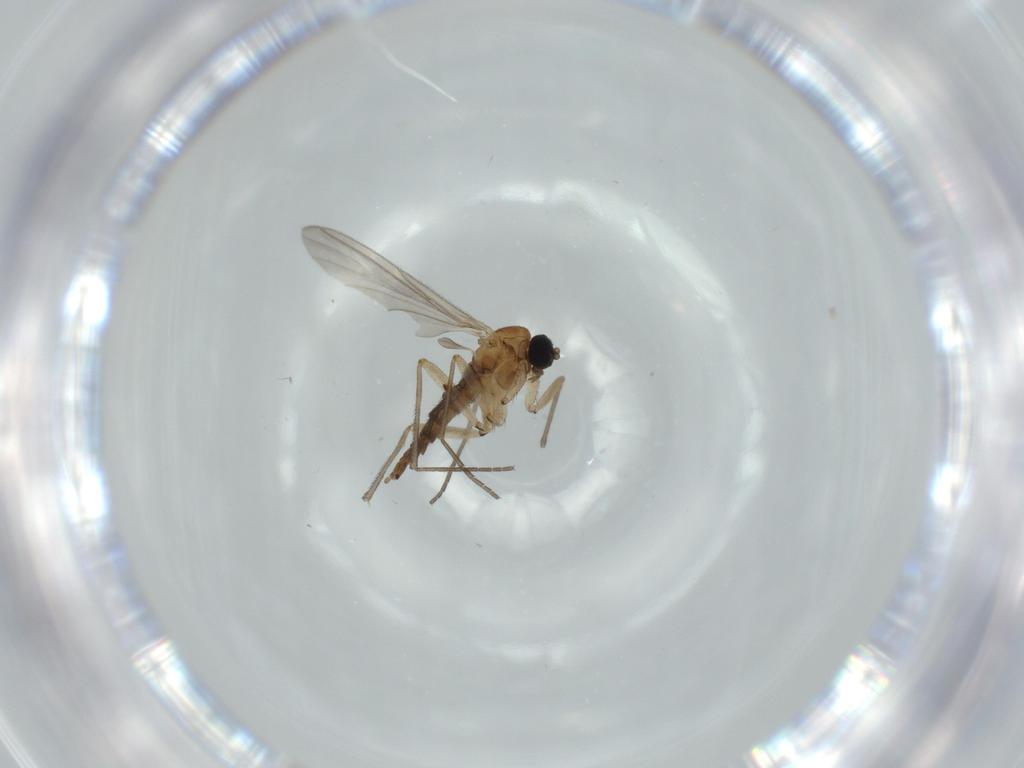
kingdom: Animalia
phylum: Arthropoda
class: Insecta
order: Diptera
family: Sciaridae
